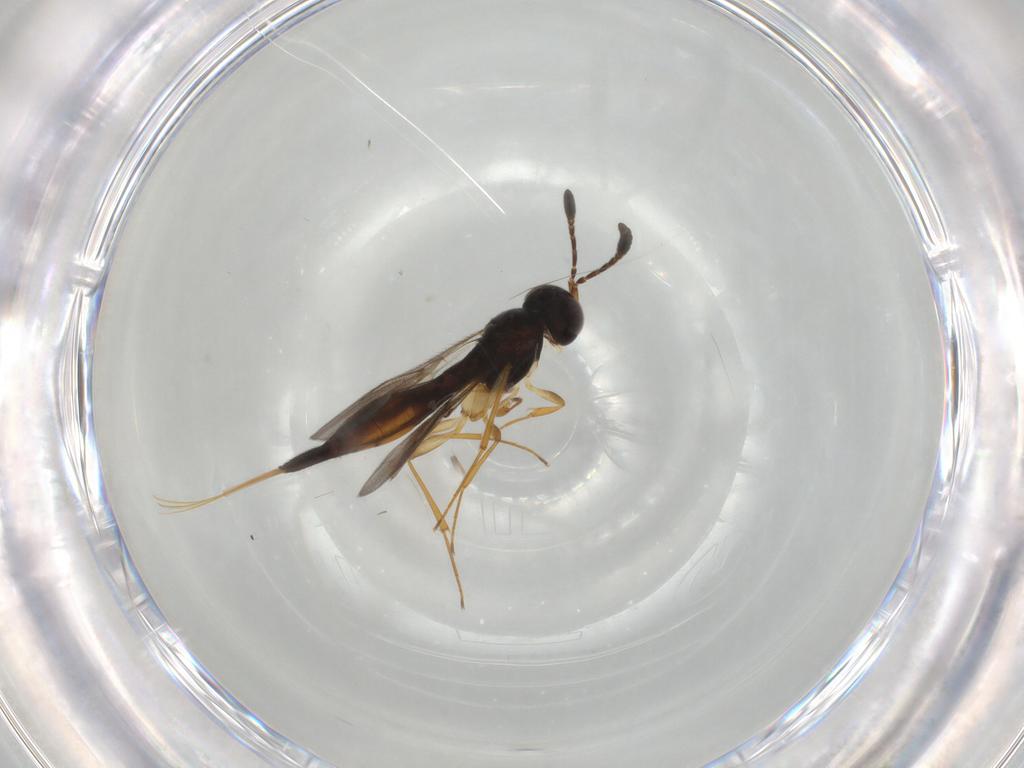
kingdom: Animalia
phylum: Arthropoda
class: Insecta
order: Hymenoptera
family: Scelionidae
